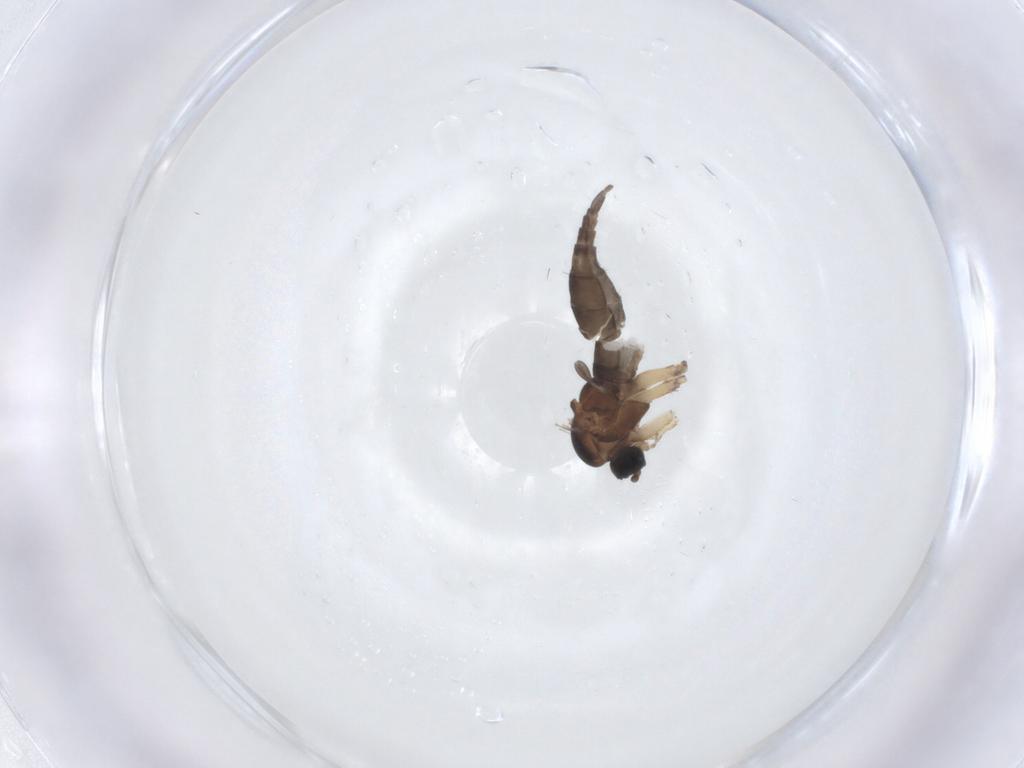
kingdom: Animalia
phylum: Arthropoda
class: Insecta
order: Diptera
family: Sciaridae
